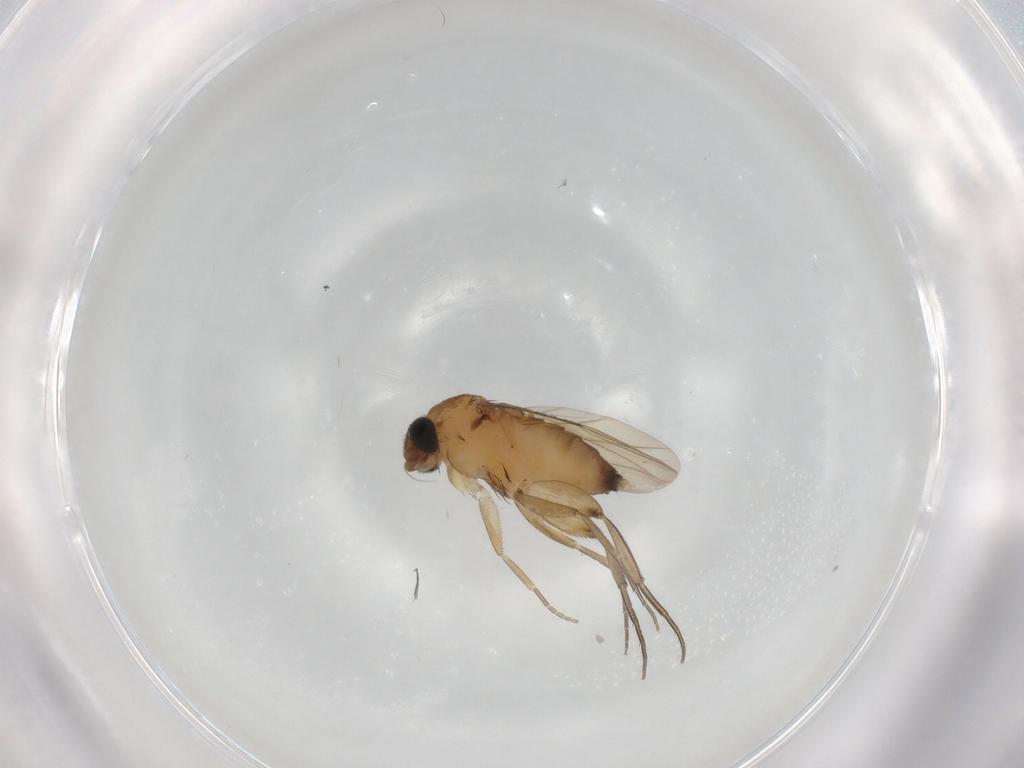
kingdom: Animalia
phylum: Arthropoda
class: Insecta
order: Diptera
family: Phoridae
